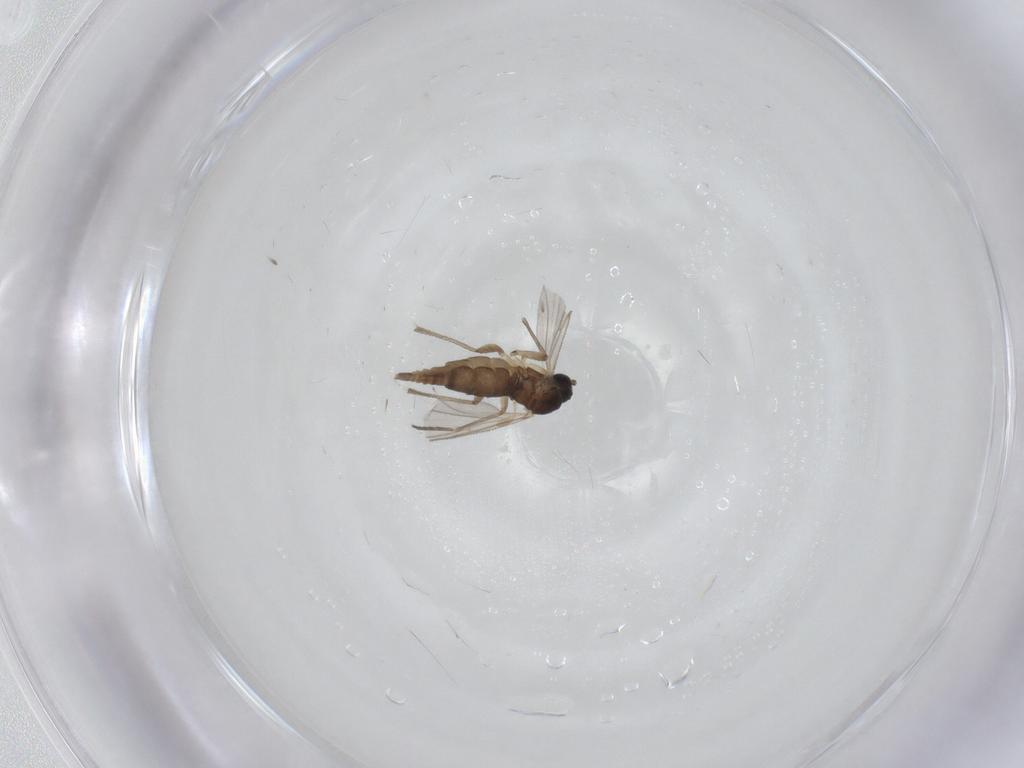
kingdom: Animalia
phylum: Arthropoda
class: Insecta
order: Diptera
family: Sciaridae
